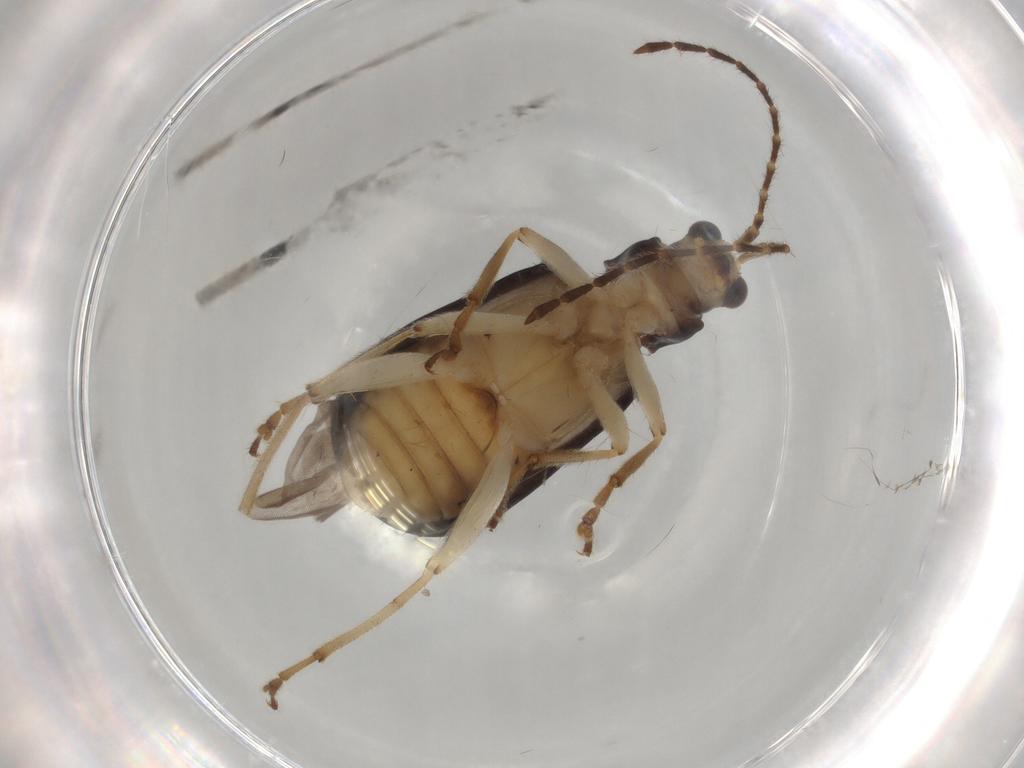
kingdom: Animalia
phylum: Arthropoda
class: Insecta
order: Coleoptera
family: Chrysomelidae
